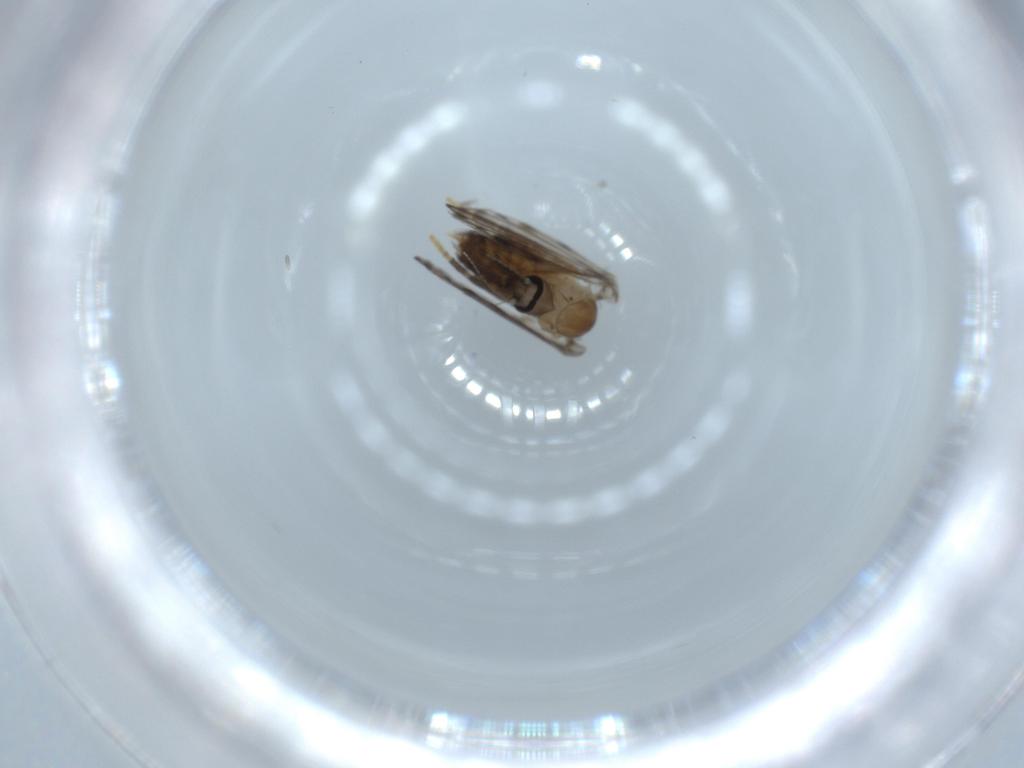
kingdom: Animalia
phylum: Arthropoda
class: Insecta
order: Diptera
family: Psychodidae
